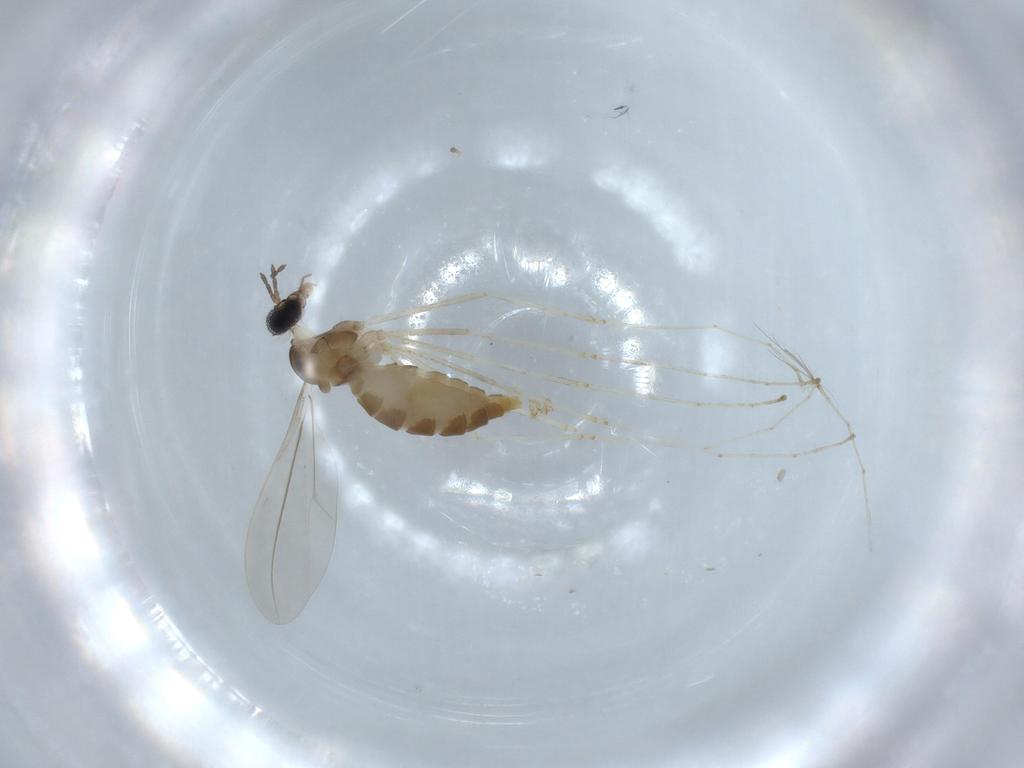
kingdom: Animalia
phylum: Arthropoda
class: Insecta
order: Diptera
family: Cecidomyiidae
